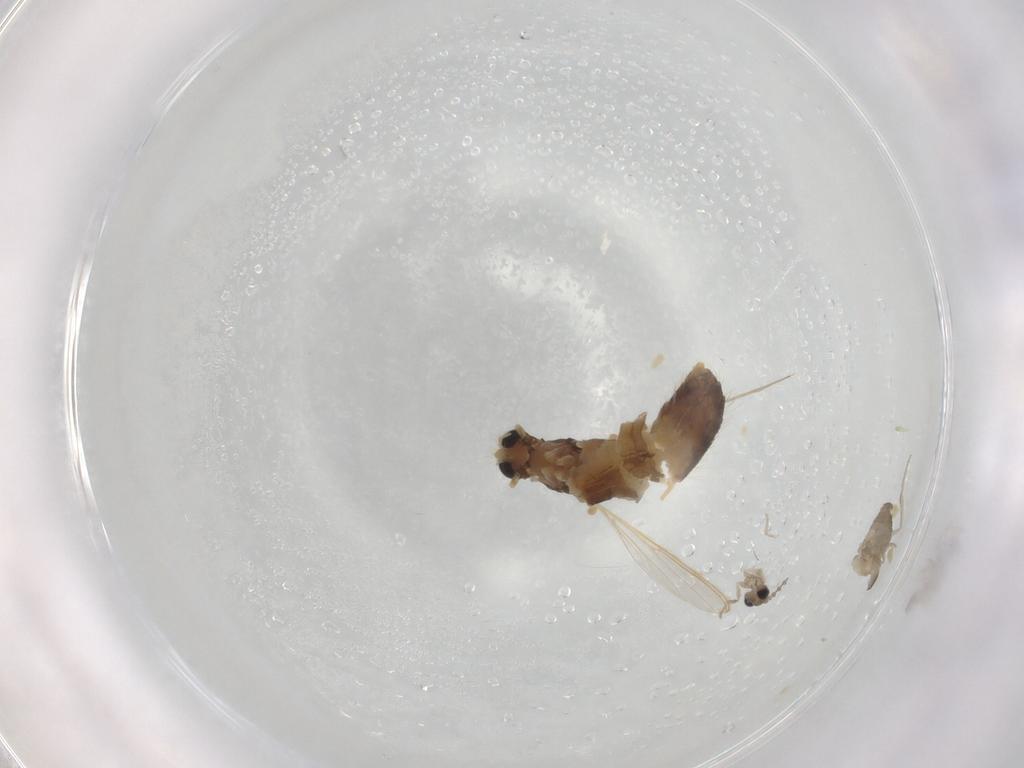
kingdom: Animalia
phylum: Arthropoda
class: Insecta
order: Diptera
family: Chironomidae
